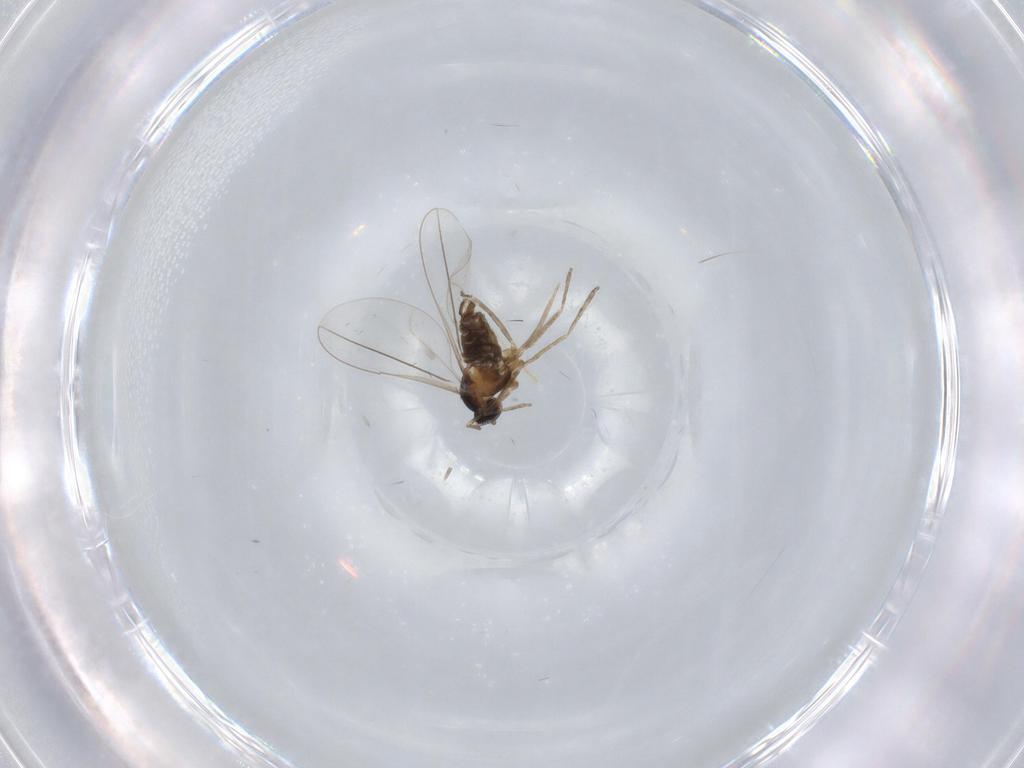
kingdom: Animalia
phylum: Arthropoda
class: Insecta
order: Diptera
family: Cecidomyiidae
